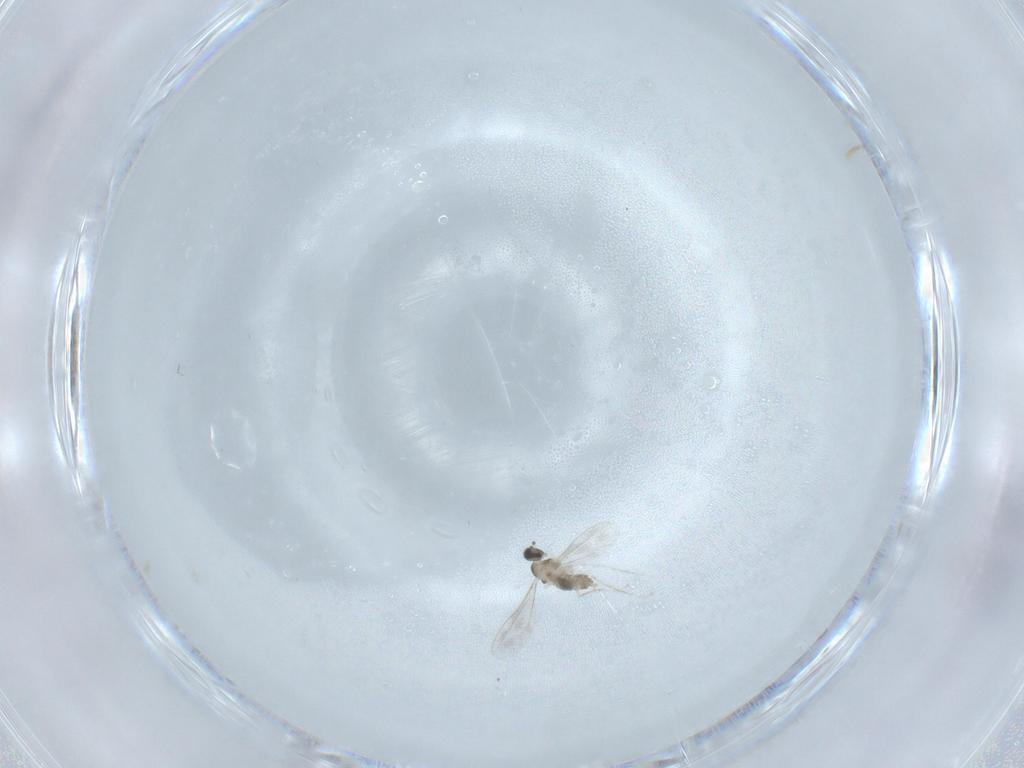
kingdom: Animalia
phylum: Arthropoda
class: Insecta
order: Diptera
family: Cecidomyiidae
